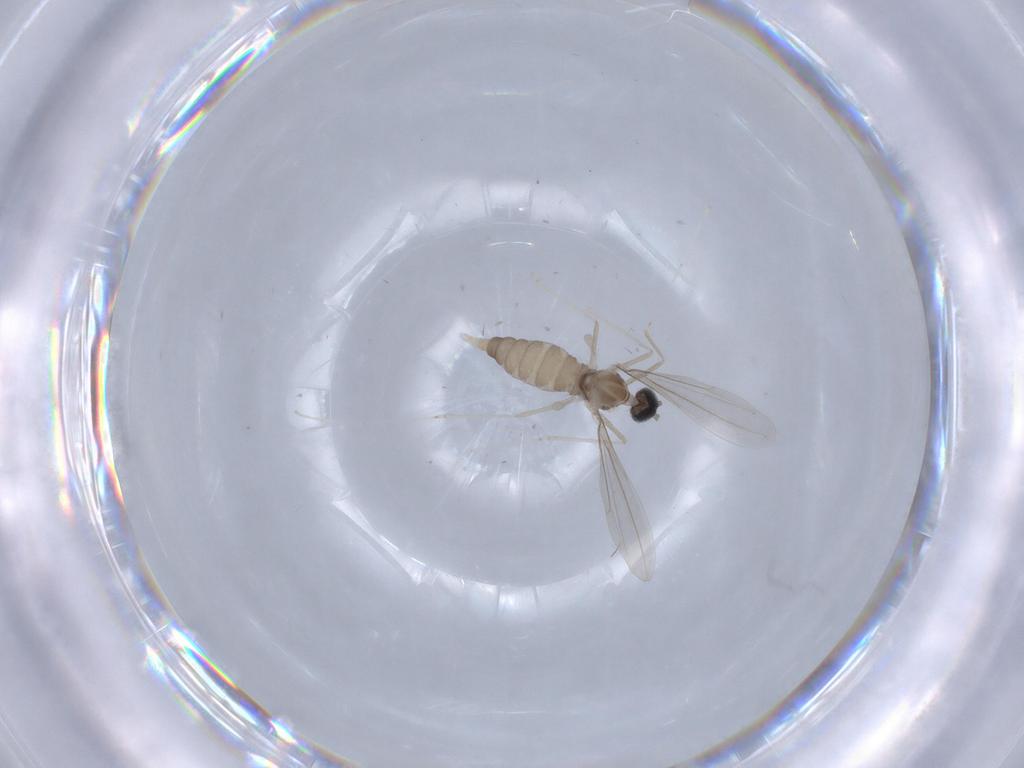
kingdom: Animalia
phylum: Arthropoda
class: Insecta
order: Diptera
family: Cecidomyiidae
